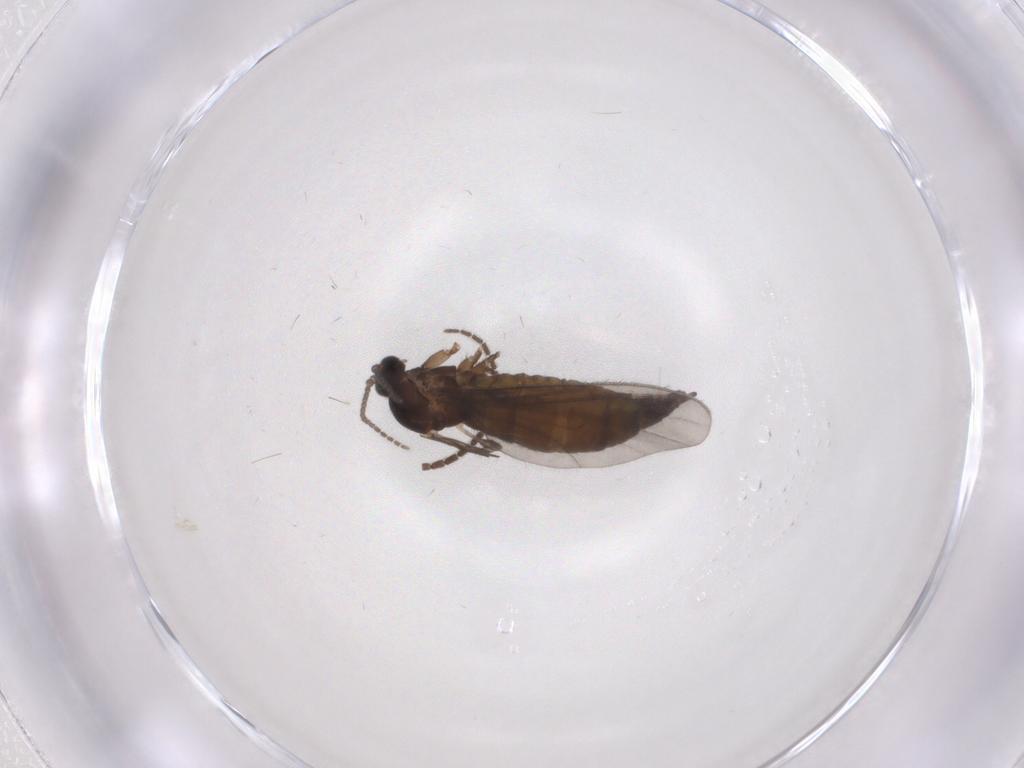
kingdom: Animalia
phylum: Arthropoda
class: Insecta
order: Diptera
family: Sciaridae
